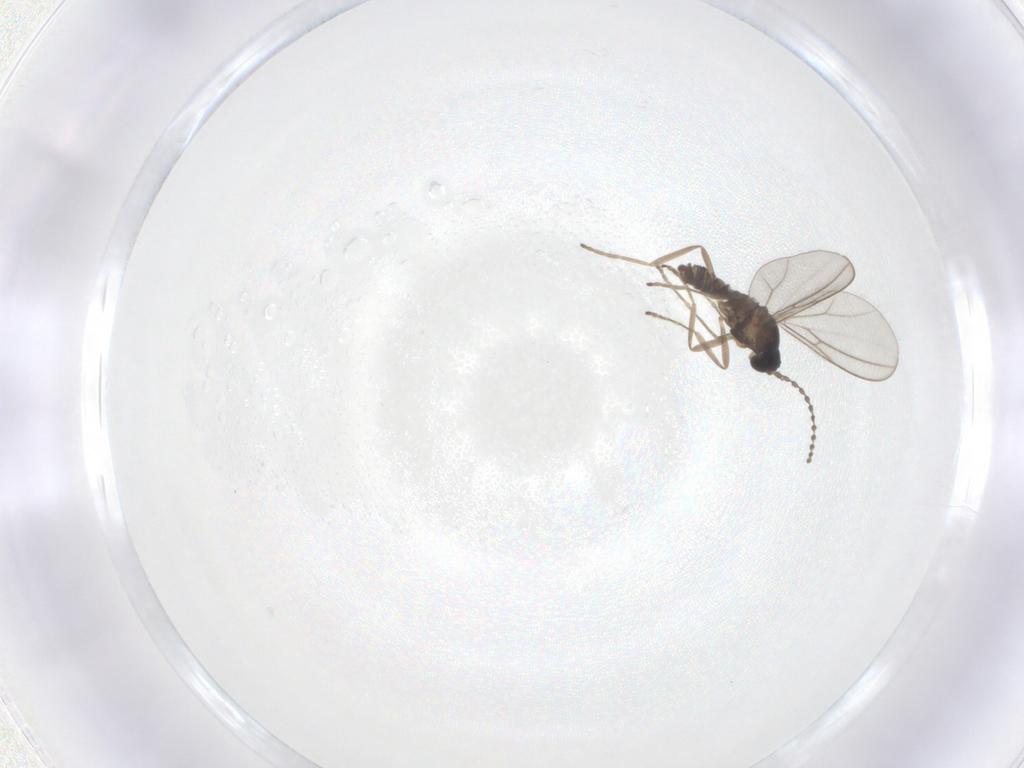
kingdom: Animalia
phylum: Arthropoda
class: Insecta
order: Diptera
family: Cecidomyiidae
